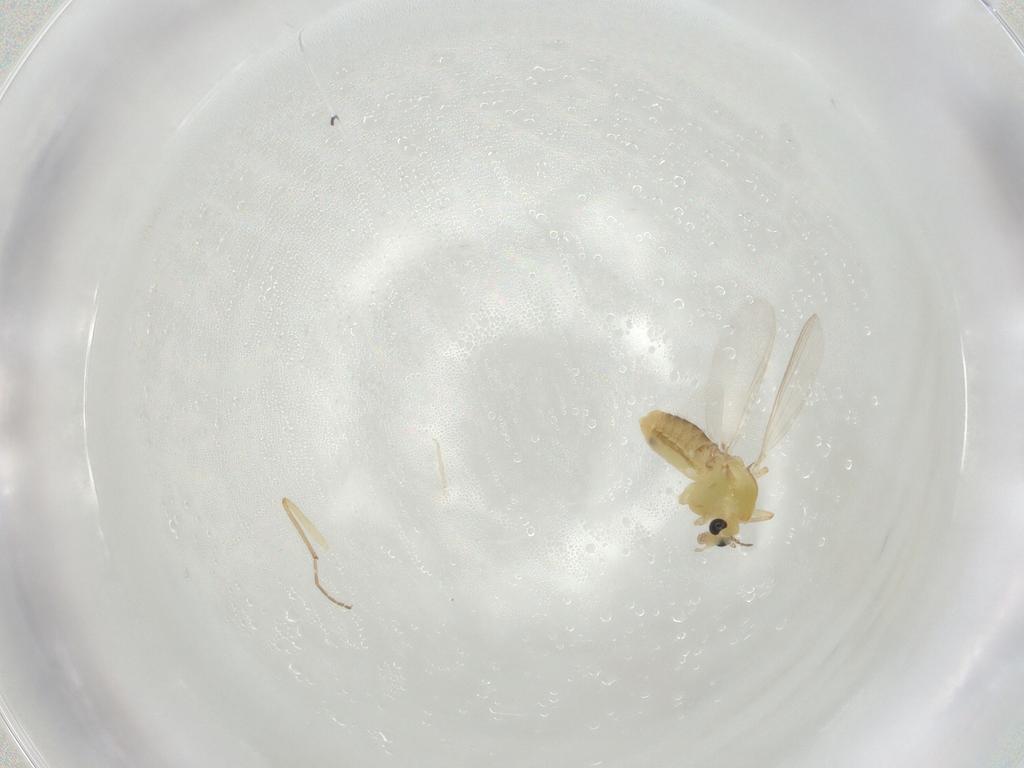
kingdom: Animalia
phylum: Arthropoda
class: Insecta
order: Diptera
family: Chironomidae
